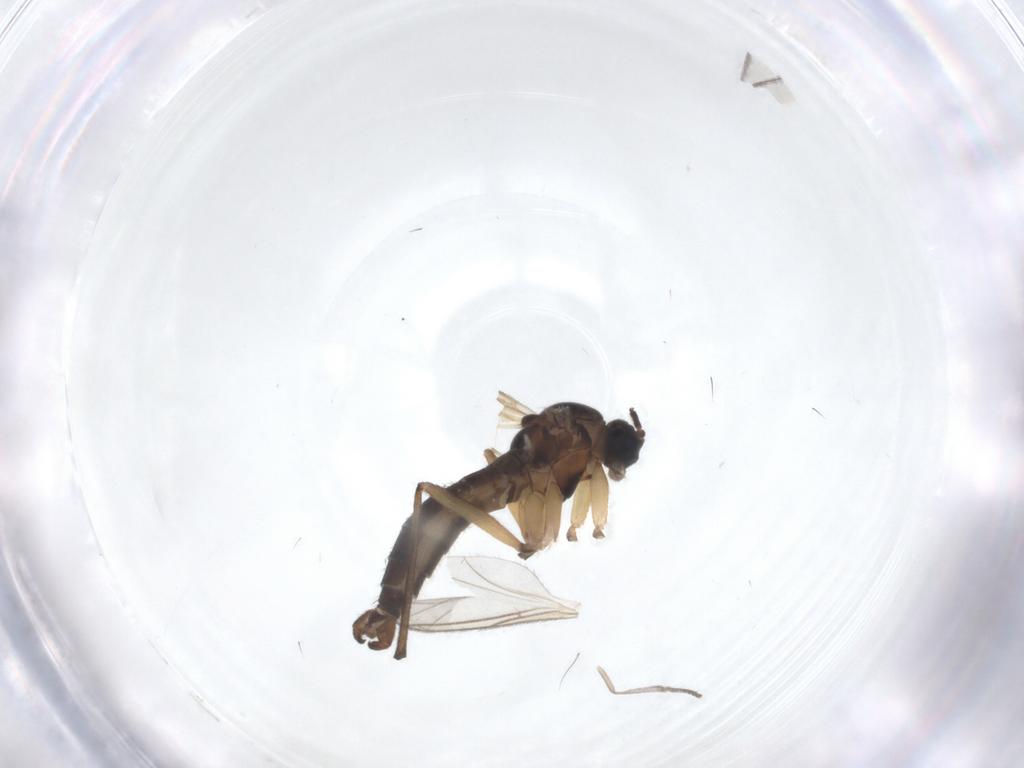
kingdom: Animalia
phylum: Arthropoda
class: Insecta
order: Diptera
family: Sciaridae
